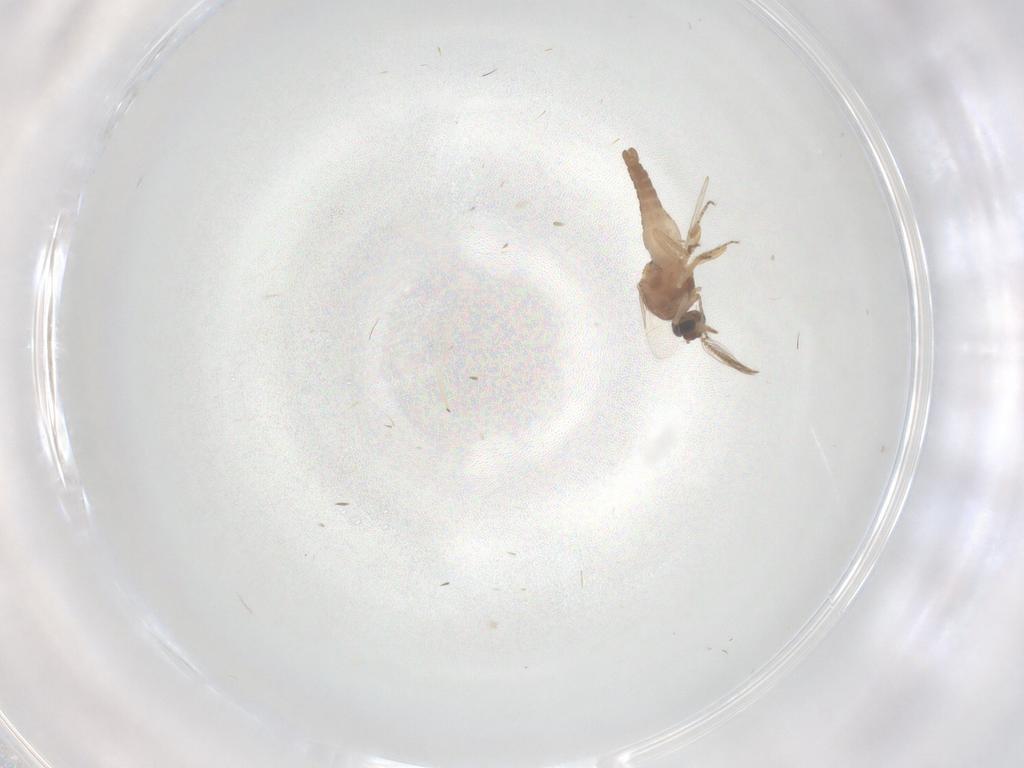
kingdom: Animalia
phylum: Arthropoda
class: Insecta
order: Diptera
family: Ceratopogonidae
